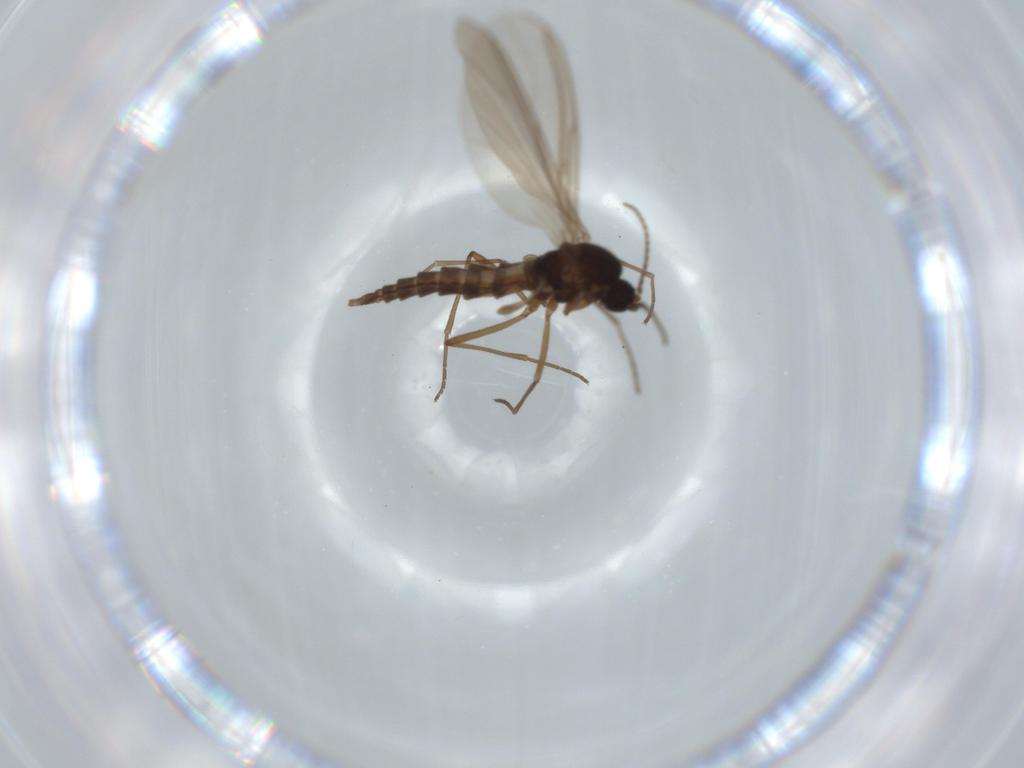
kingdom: Animalia
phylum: Arthropoda
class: Insecta
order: Diptera
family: Sciaridae
